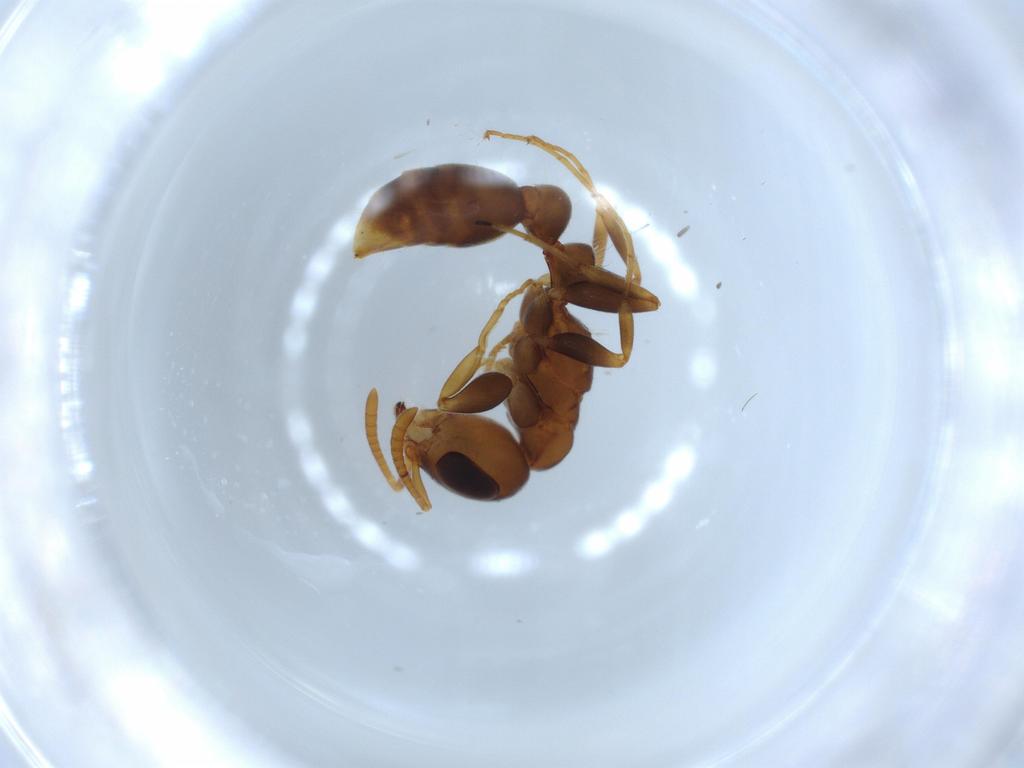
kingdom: Animalia
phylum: Arthropoda
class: Insecta
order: Hymenoptera
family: Formicidae
